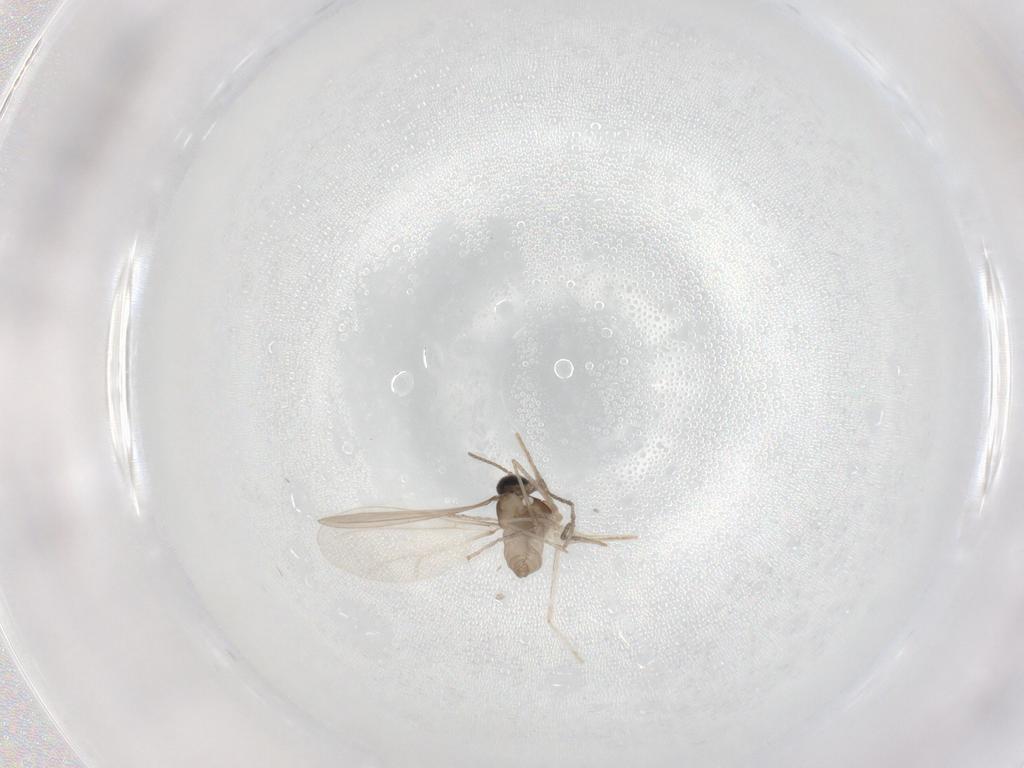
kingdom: Animalia
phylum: Arthropoda
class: Insecta
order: Diptera
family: Cecidomyiidae
